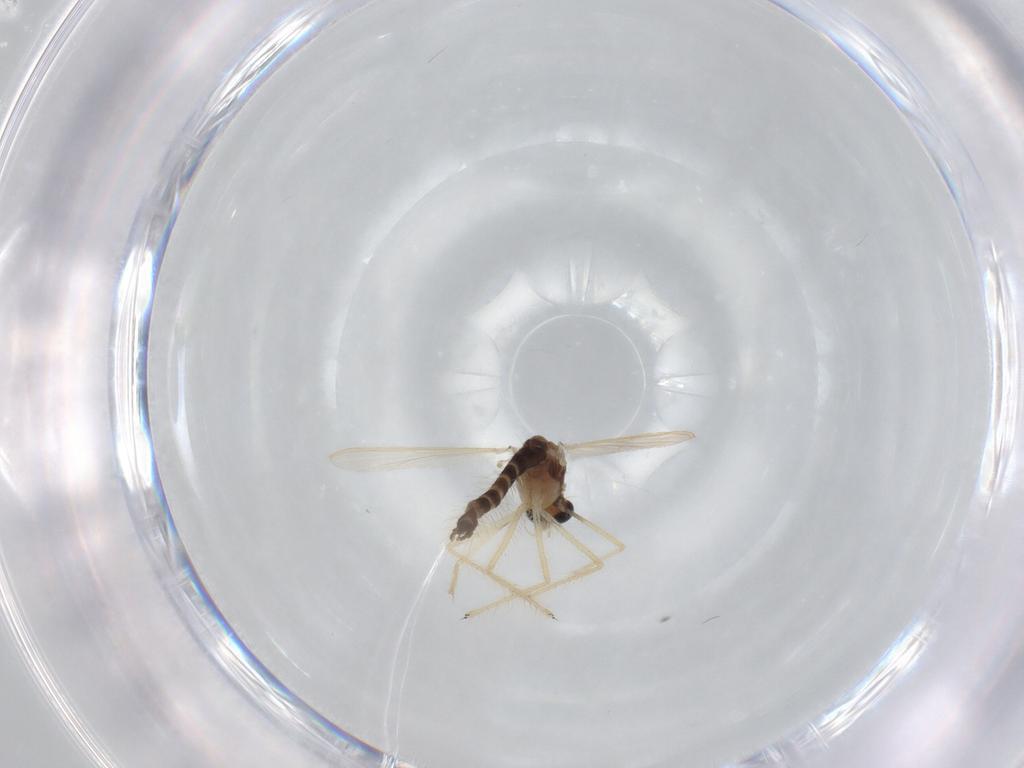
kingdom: Animalia
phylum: Arthropoda
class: Insecta
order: Diptera
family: Chironomidae
